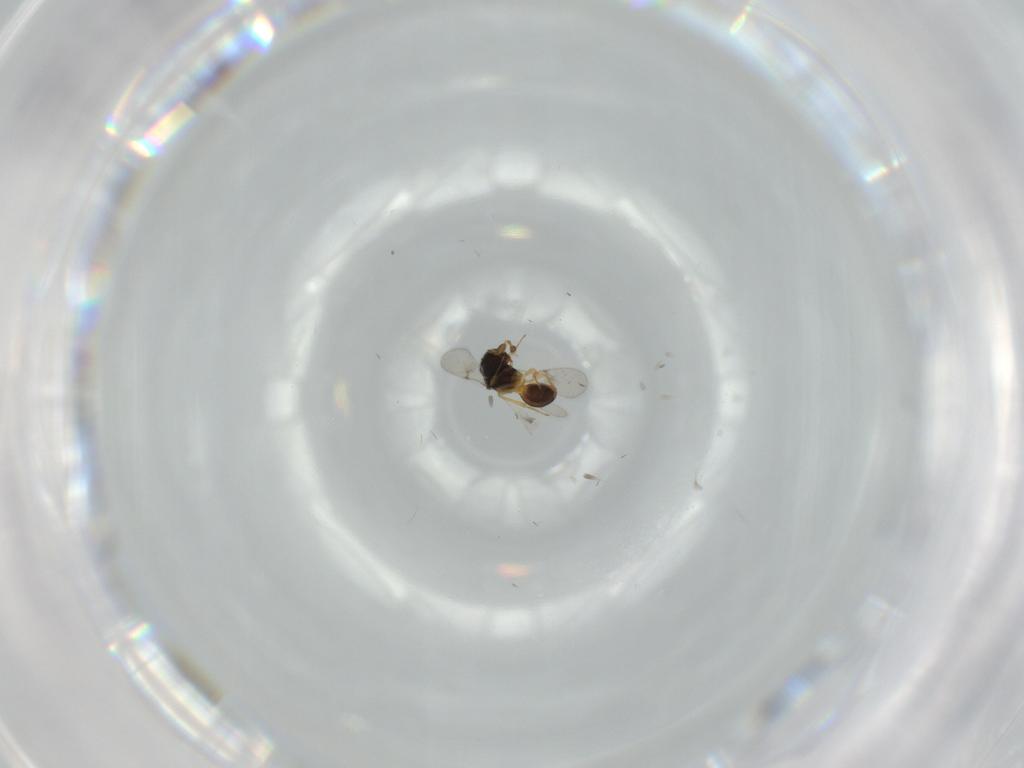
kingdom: Animalia
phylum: Arthropoda
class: Insecta
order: Hymenoptera
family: Scelionidae
